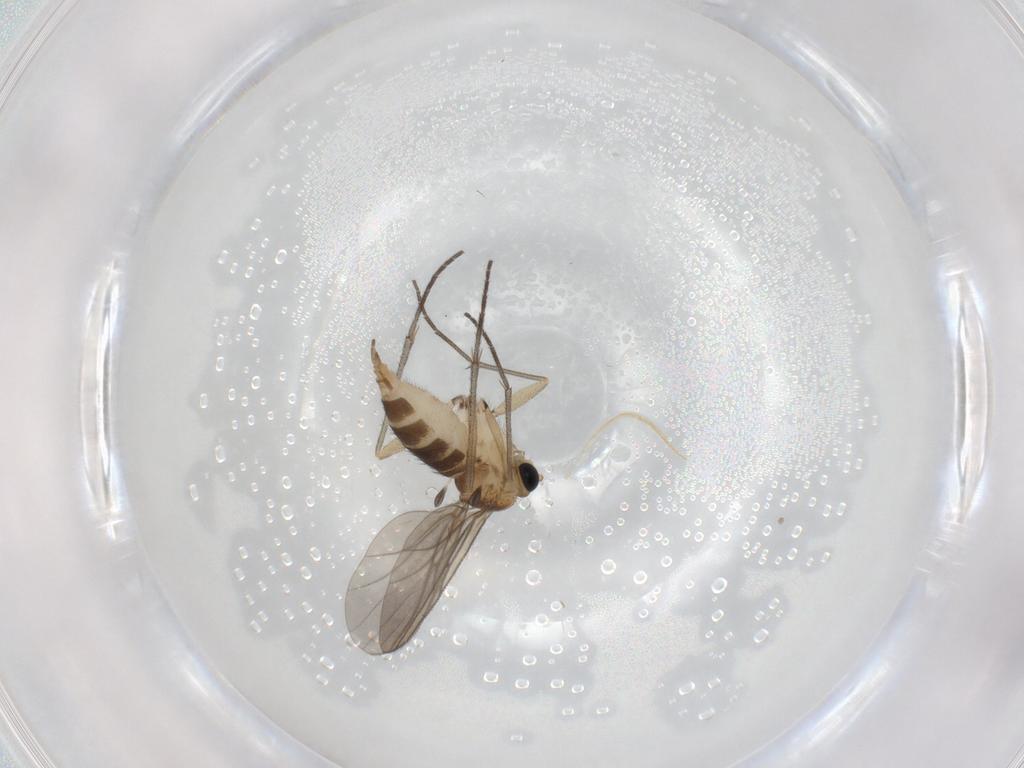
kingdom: Animalia
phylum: Arthropoda
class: Insecta
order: Diptera
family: Sciaridae
